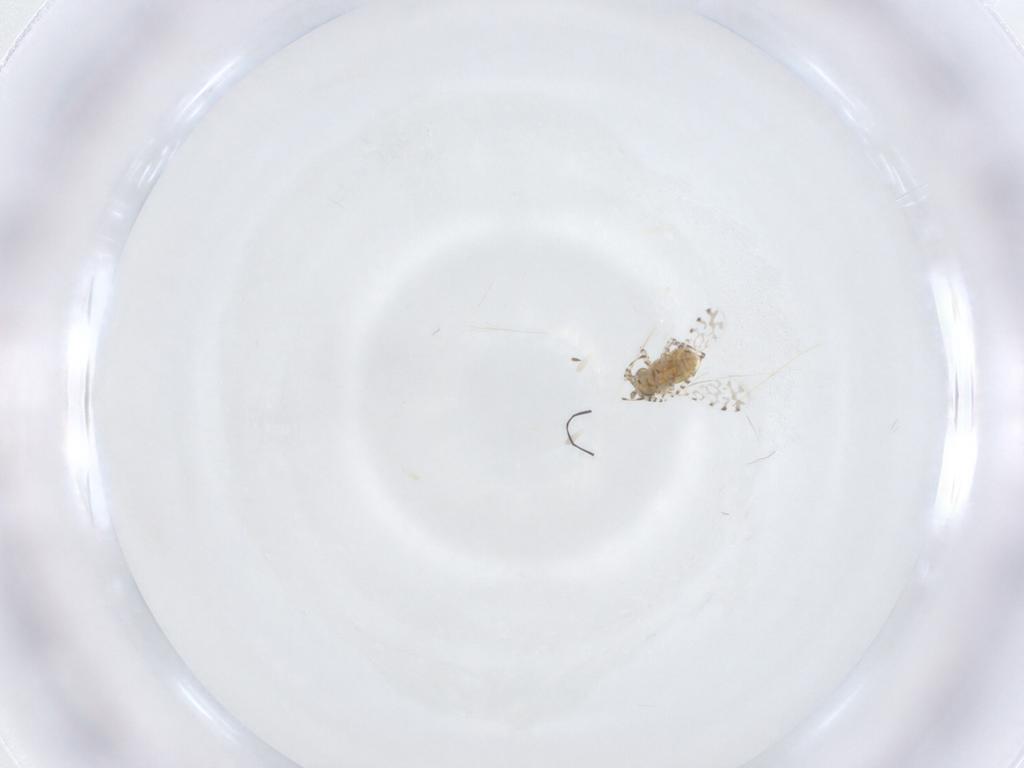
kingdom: Animalia
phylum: Arthropoda
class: Insecta
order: Diptera
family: Asilidae
